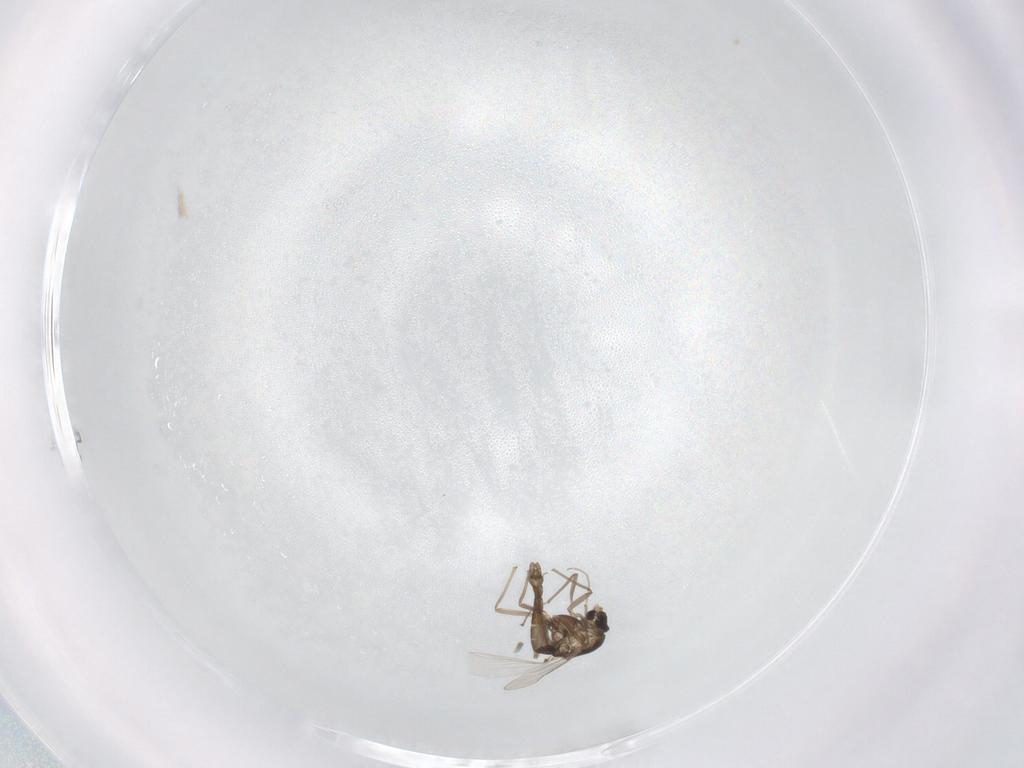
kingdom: Animalia
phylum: Arthropoda
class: Insecta
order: Diptera
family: Chironomidae
